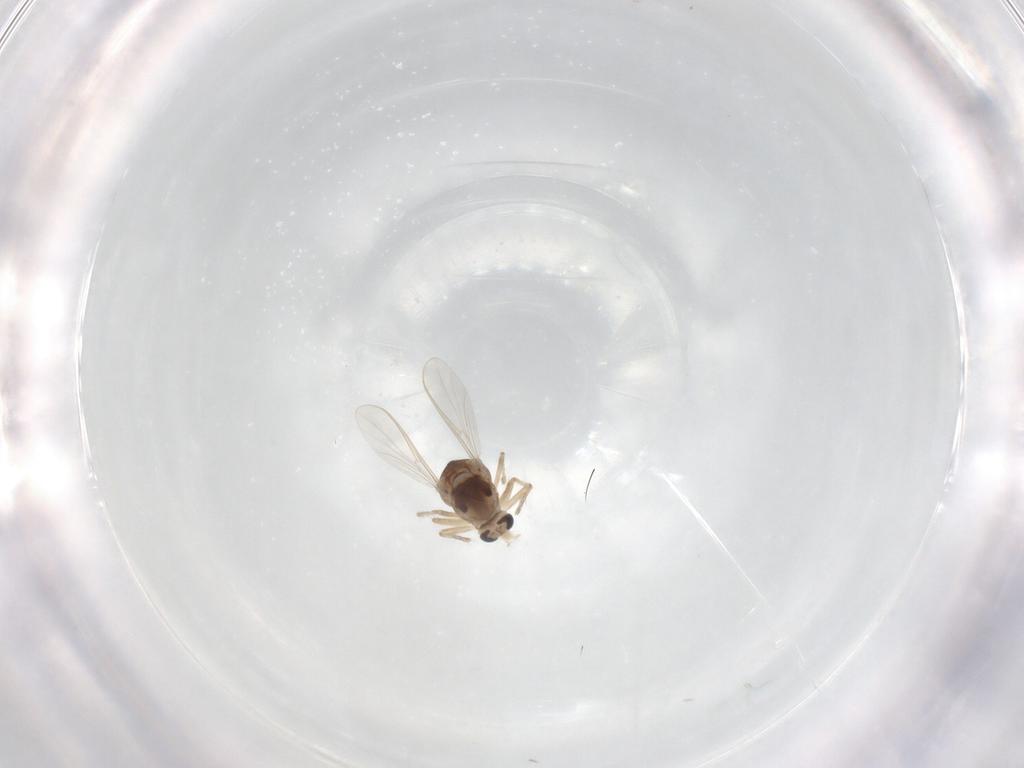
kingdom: Animalia
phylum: Arthropoda
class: Insecta
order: Diptera
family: Chironomidae
